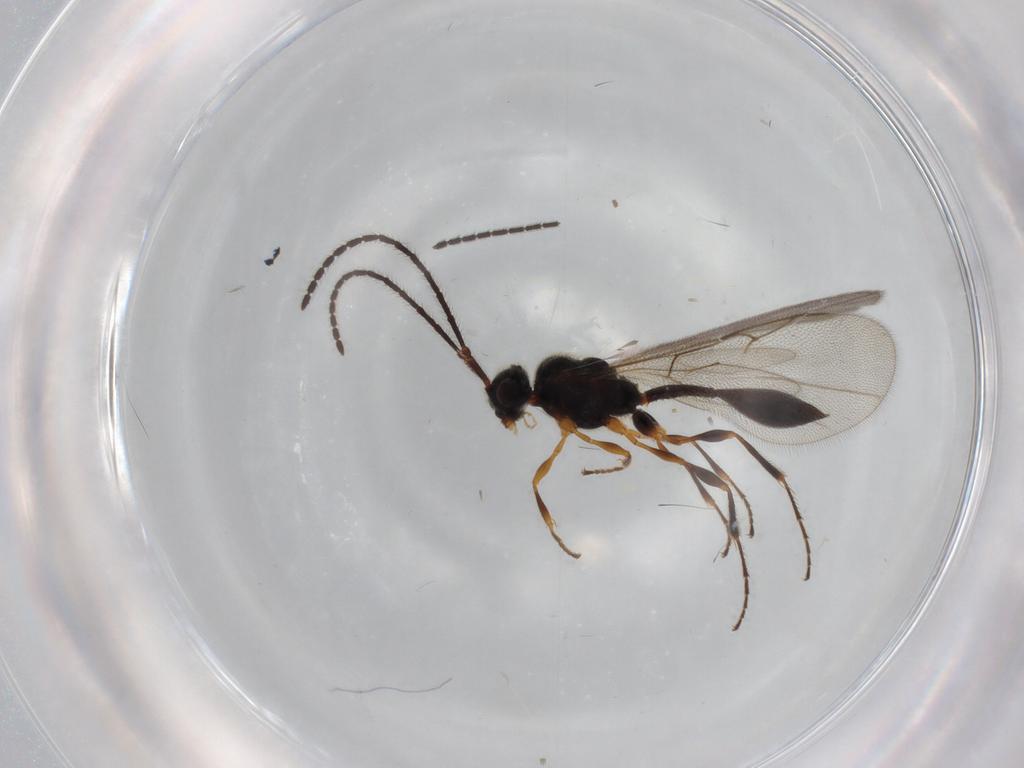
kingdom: Animalia
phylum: Arthropoda
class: Insecta
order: Hymenoptera
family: Diapriidae
